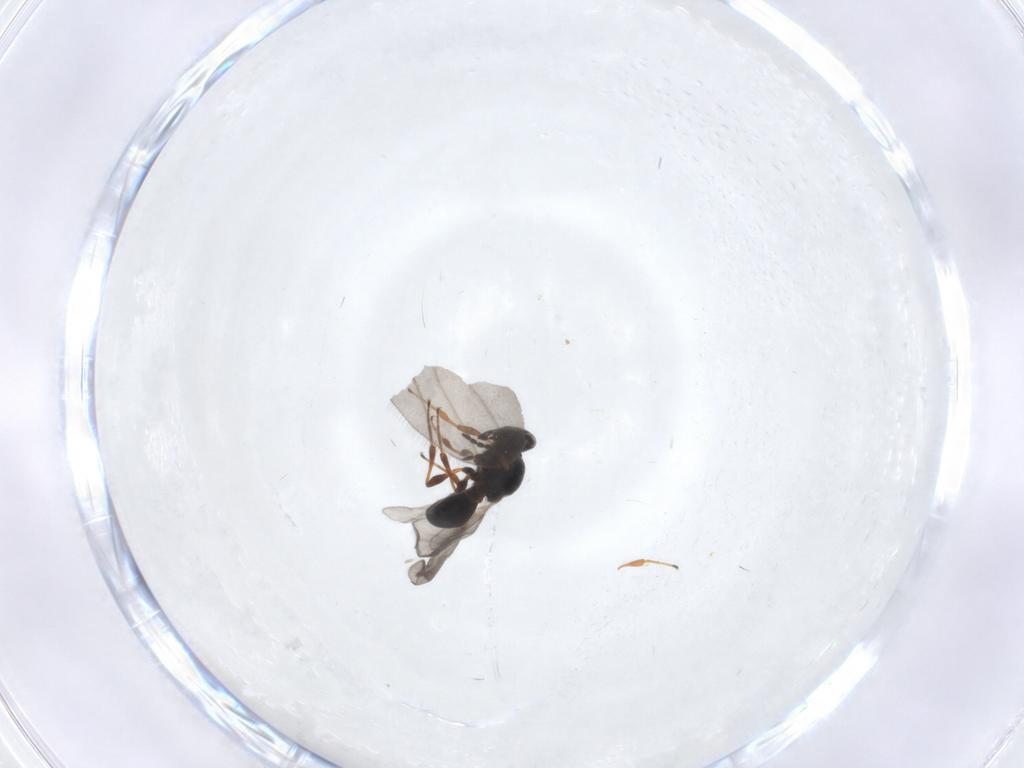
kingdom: Animalia
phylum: Arthropoda
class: Insecta
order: Hymenoptera
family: Platygastridae
